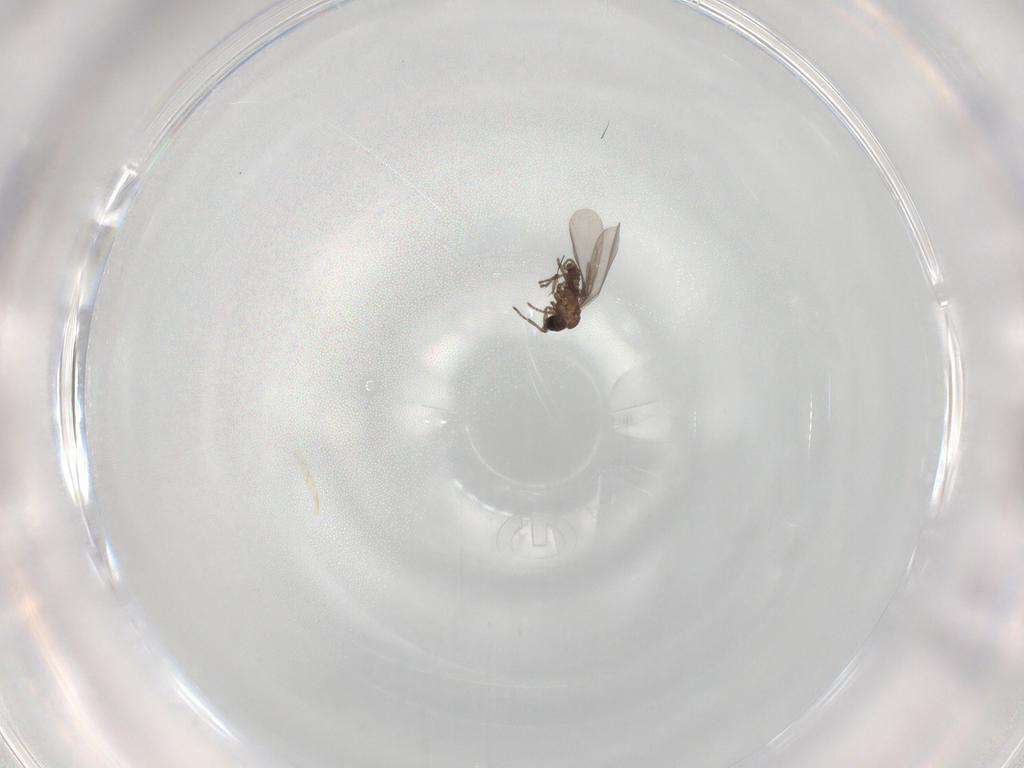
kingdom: Animalia
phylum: Arthropoda
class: Insecta
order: Diptera
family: Sciaridae
